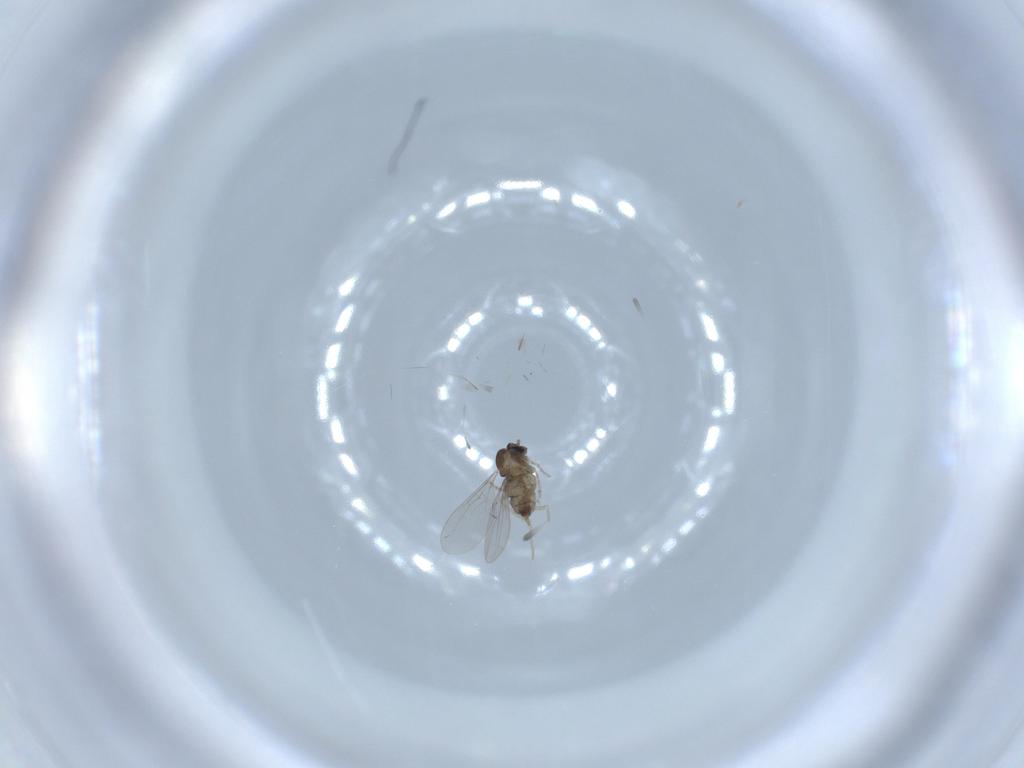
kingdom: Animalia
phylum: Arthropoda
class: Insecta
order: Diptera
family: Cecidomyiidae
